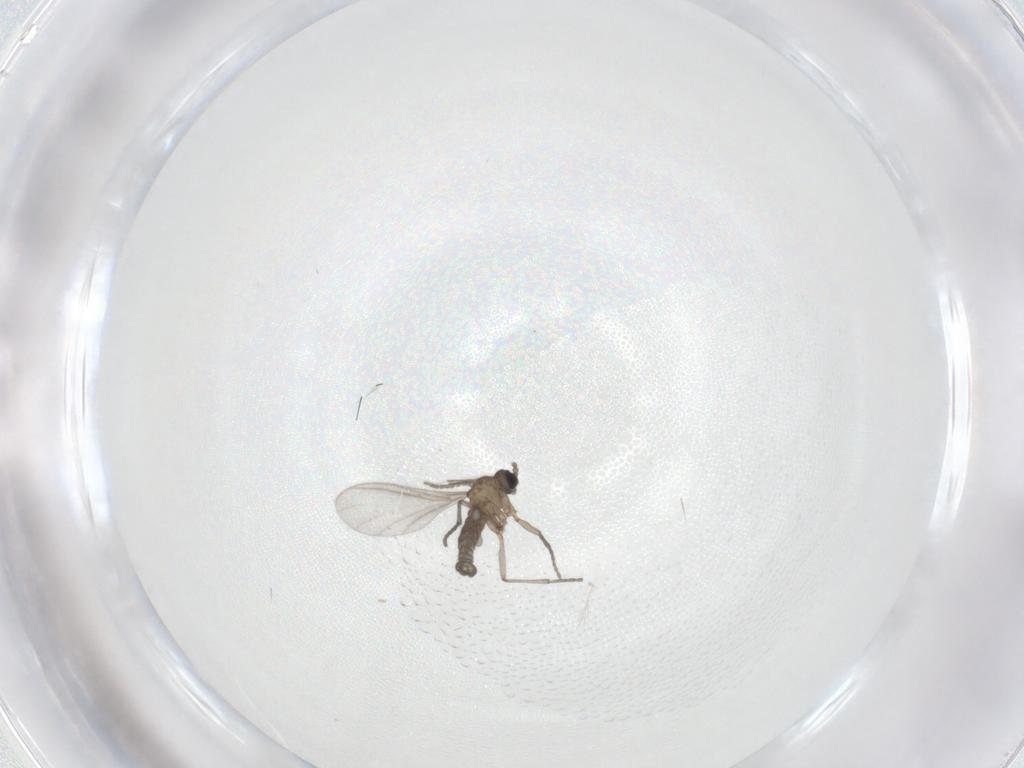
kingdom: Animalia
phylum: Arthropoda
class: Insecta
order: Diptera
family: Sciaridae
